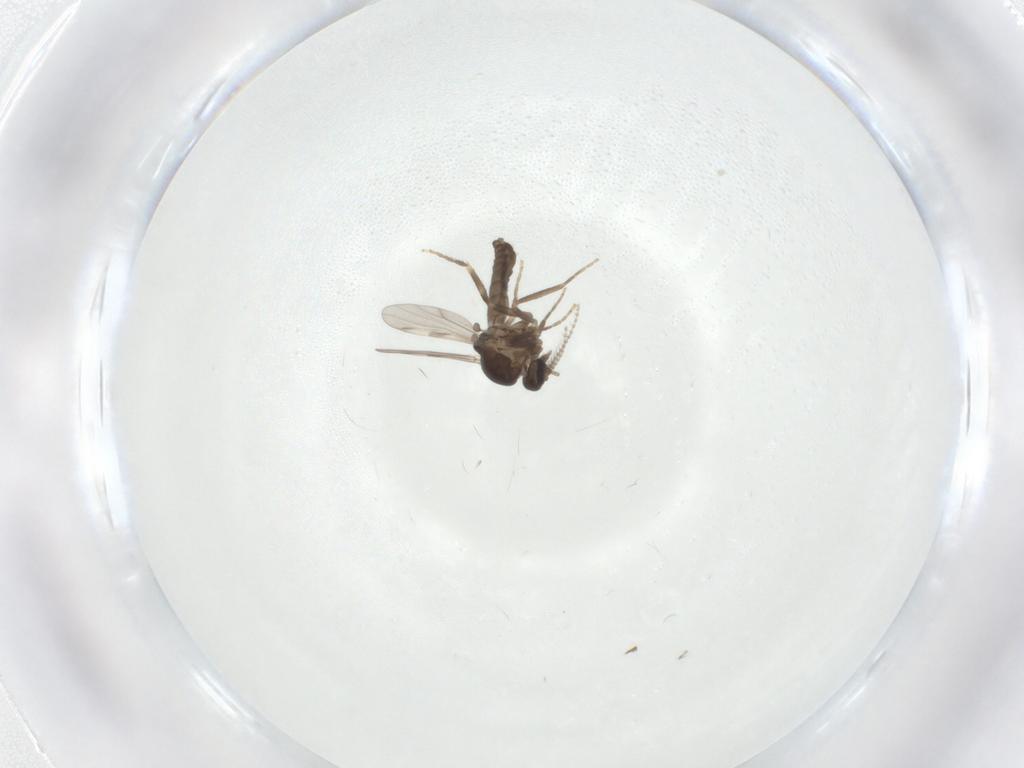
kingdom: Animalia
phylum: Arthropoda
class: Insecta
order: Diptera
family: Ceratopogonidae
